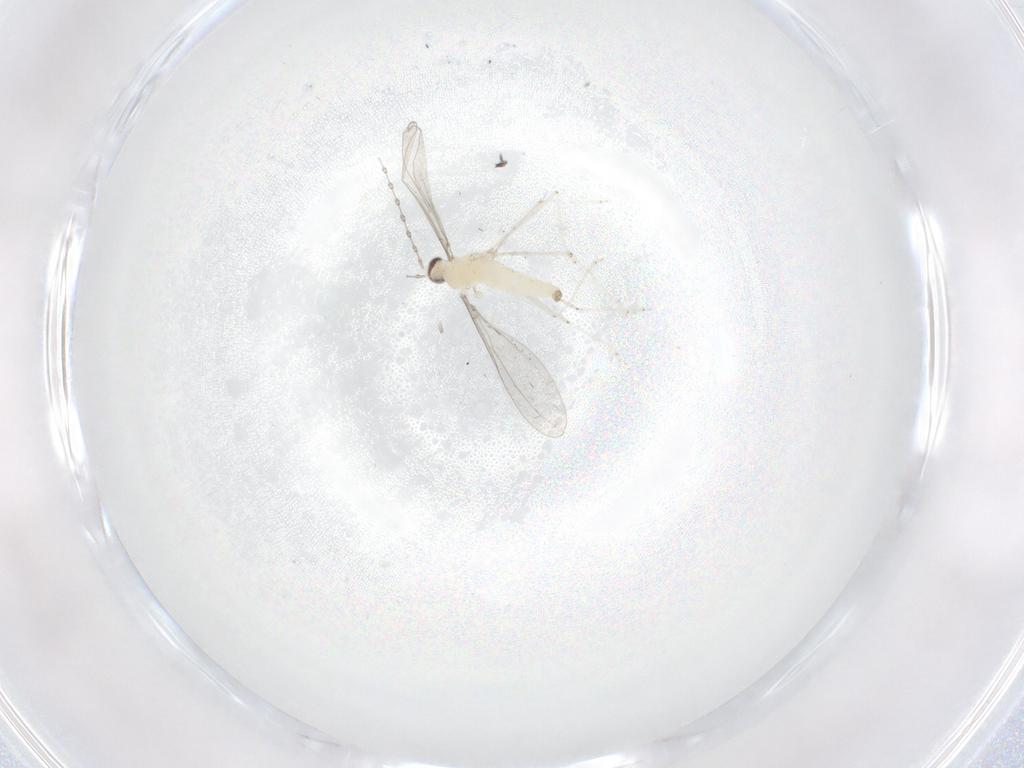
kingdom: Animalia
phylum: Arthropoda
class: Insecta
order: Diptera
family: Cecidomyiidae
